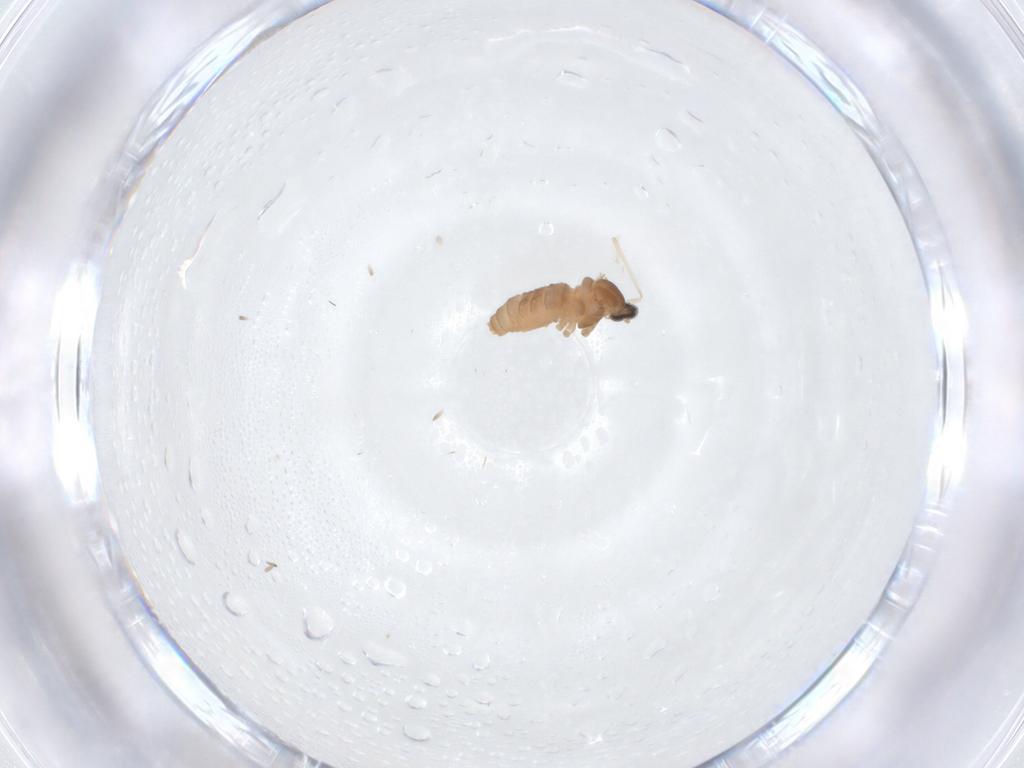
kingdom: Animalia
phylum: Arthropoda
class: Insecta
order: Diptera
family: Cecidomyiidae
